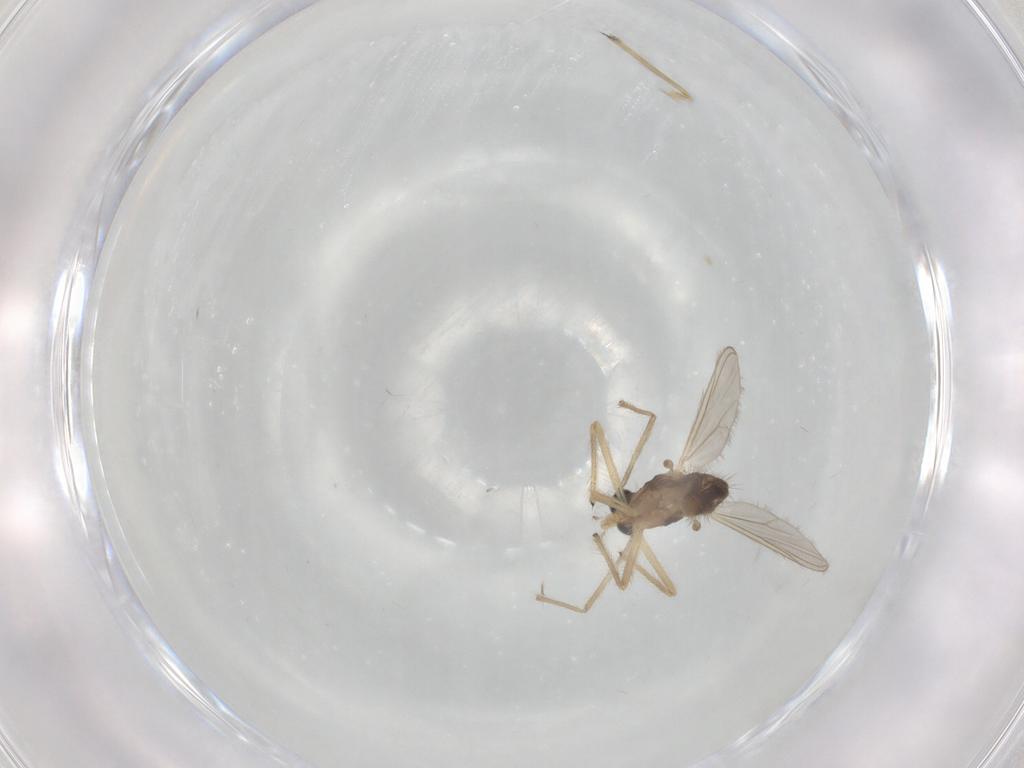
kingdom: Animalia
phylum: Arthropoda
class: Insecta
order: Diptera
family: Chironomidae
